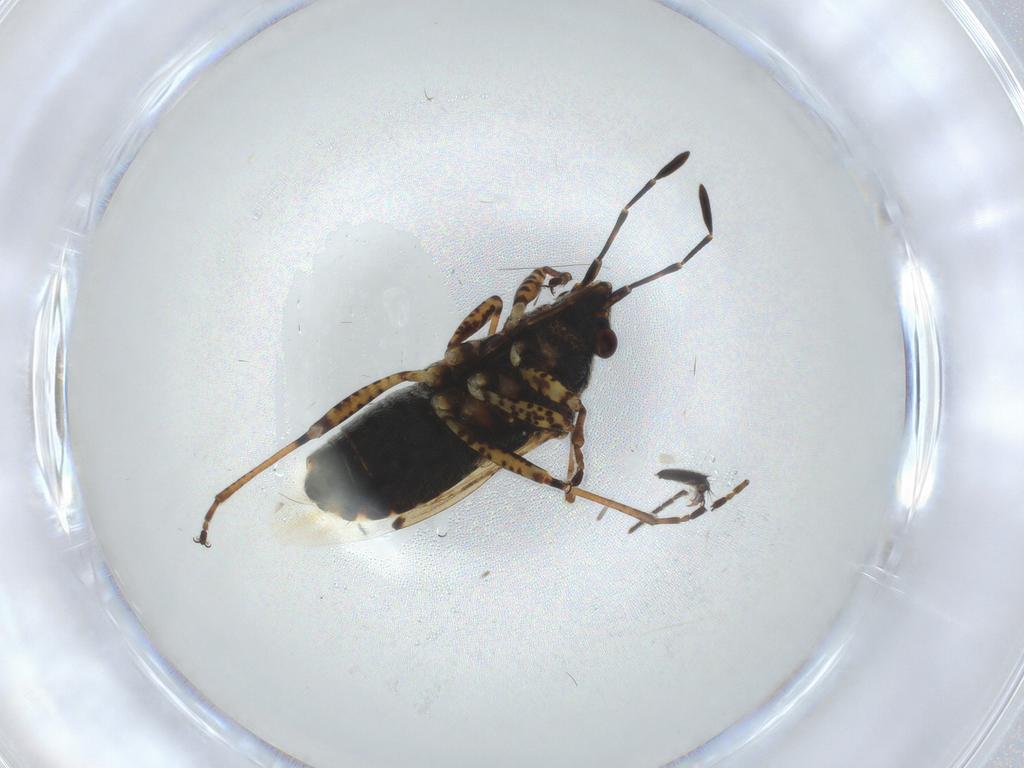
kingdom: Animalia
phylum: Arthropoda
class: Insecta
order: Hemiptera
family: Lygaeidae
